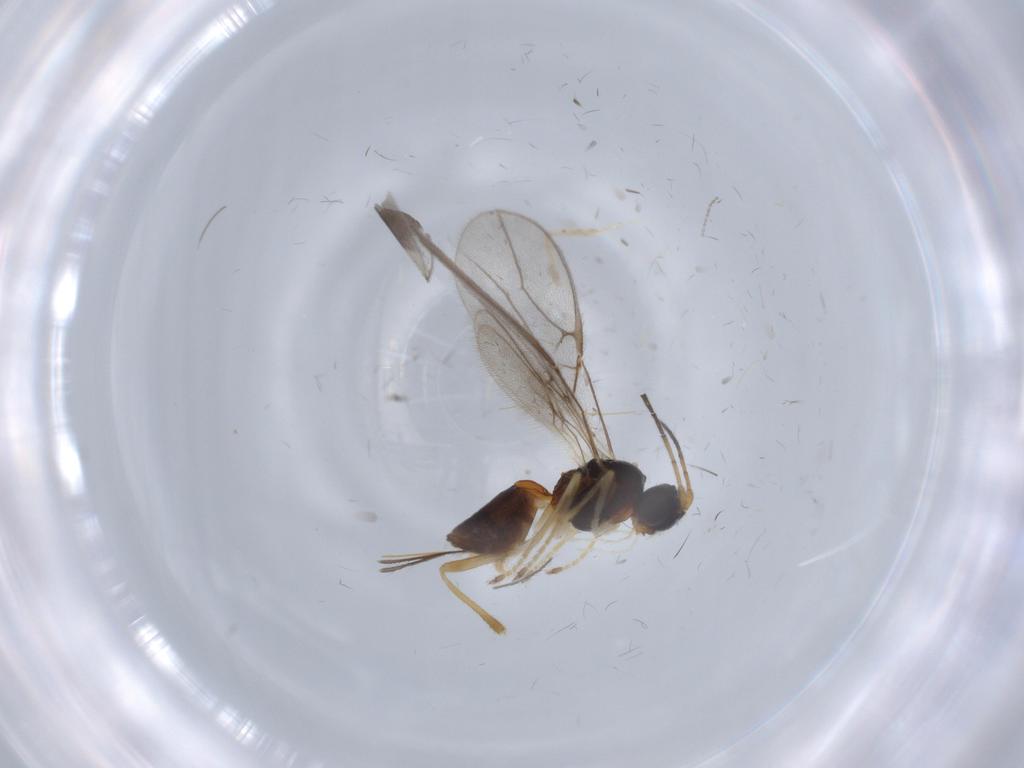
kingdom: Animalia
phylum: Arthropoda
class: Insecta
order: Hymenoptera
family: Braconidae
